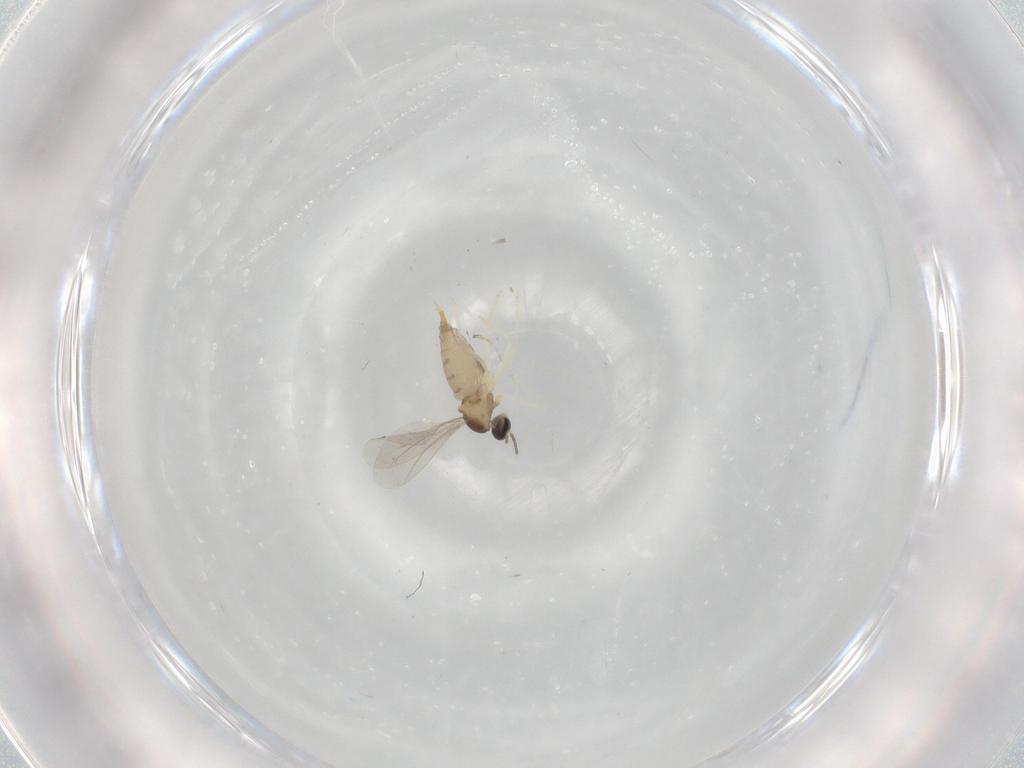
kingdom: Animalia
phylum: Arthropoda
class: Insecta
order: Diptera
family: Cecidomyiidae
